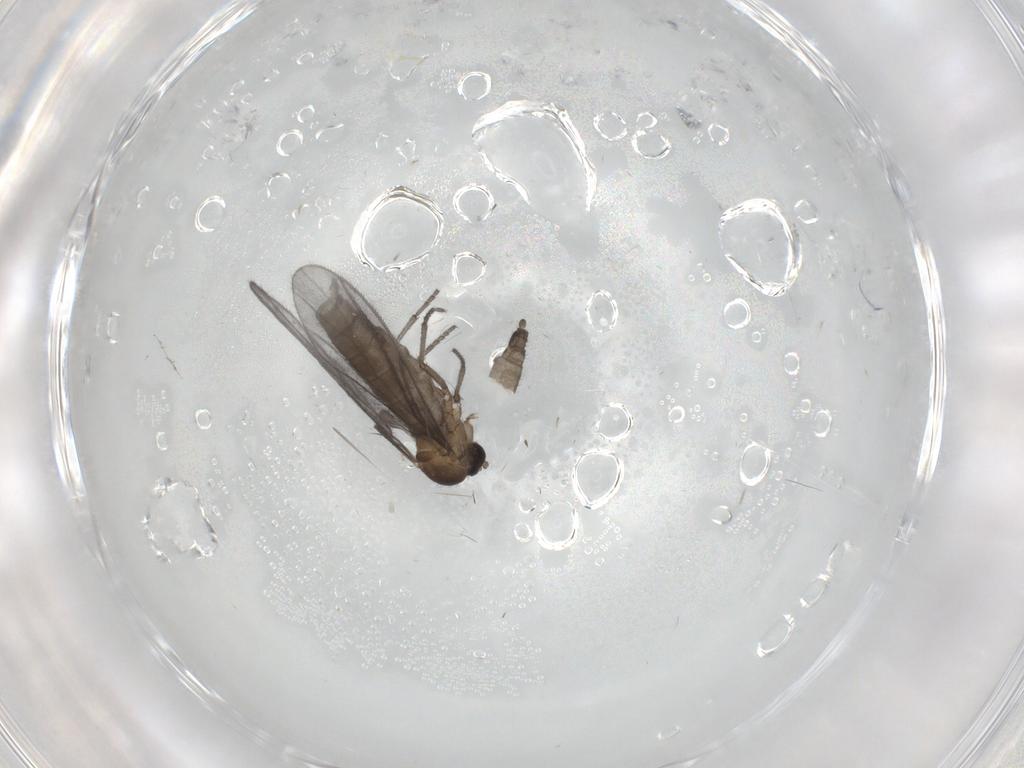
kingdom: Animalia
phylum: Arthropoda
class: Insecta
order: Diptera
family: Sciaridae
